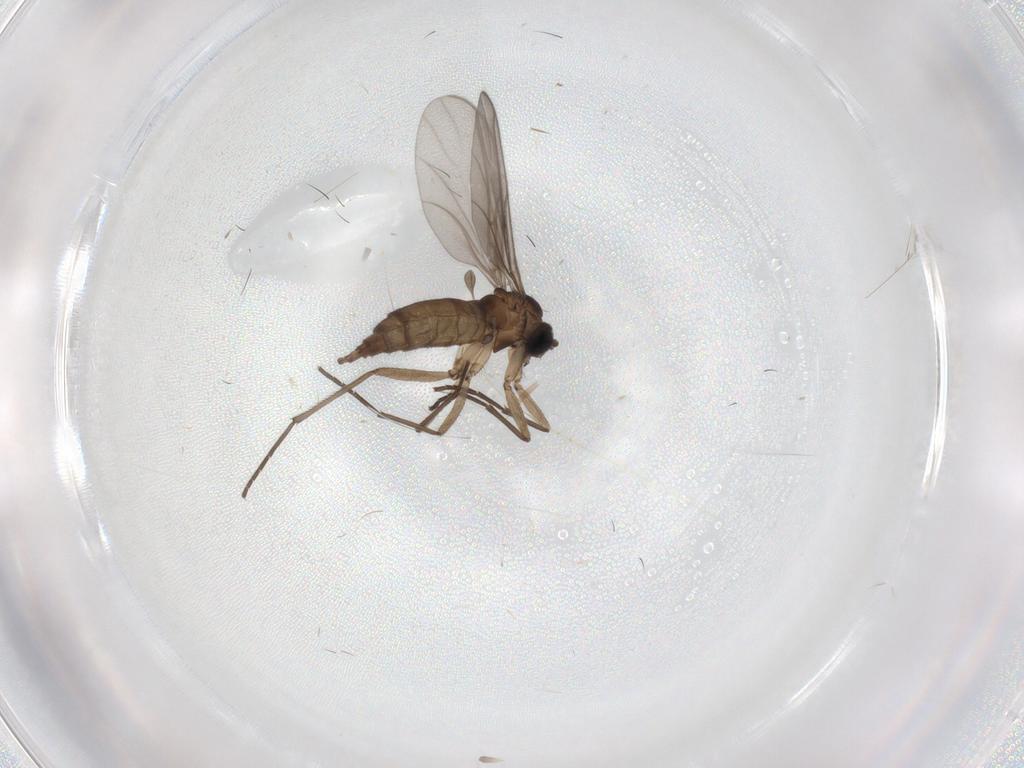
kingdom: Animalia
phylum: Arthropoda
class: Insecta
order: Diptera
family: Sciaridae
